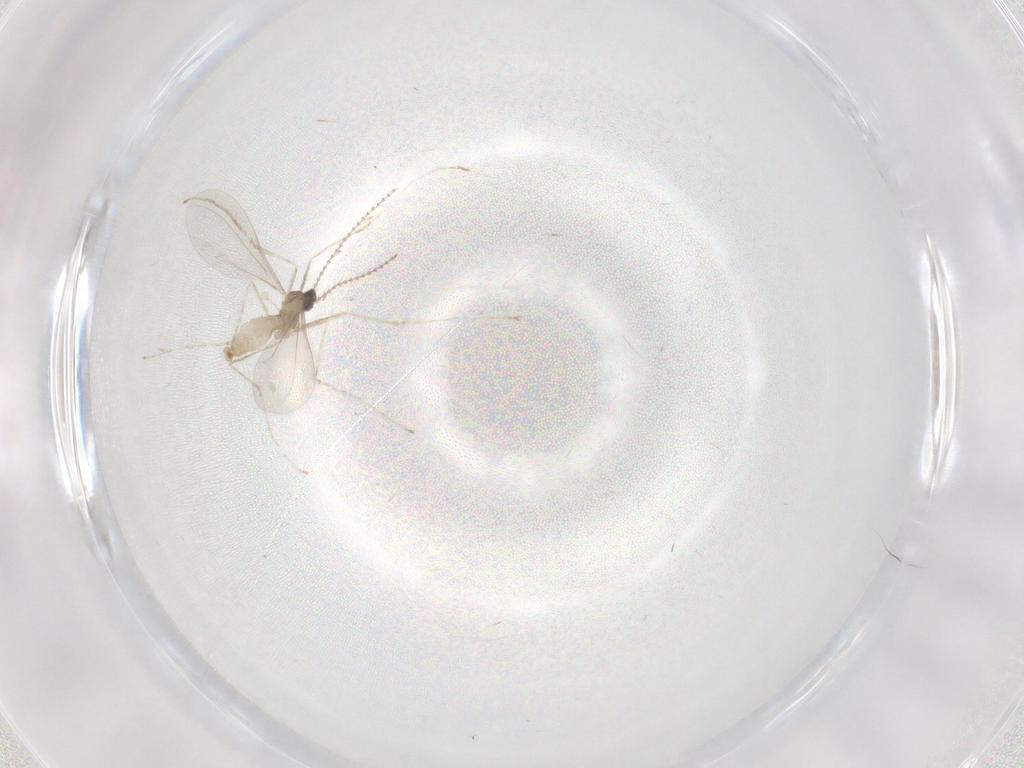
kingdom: Animalia
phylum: Arthropoda
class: Insecta
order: Diptera
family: Cecidomyiidae
